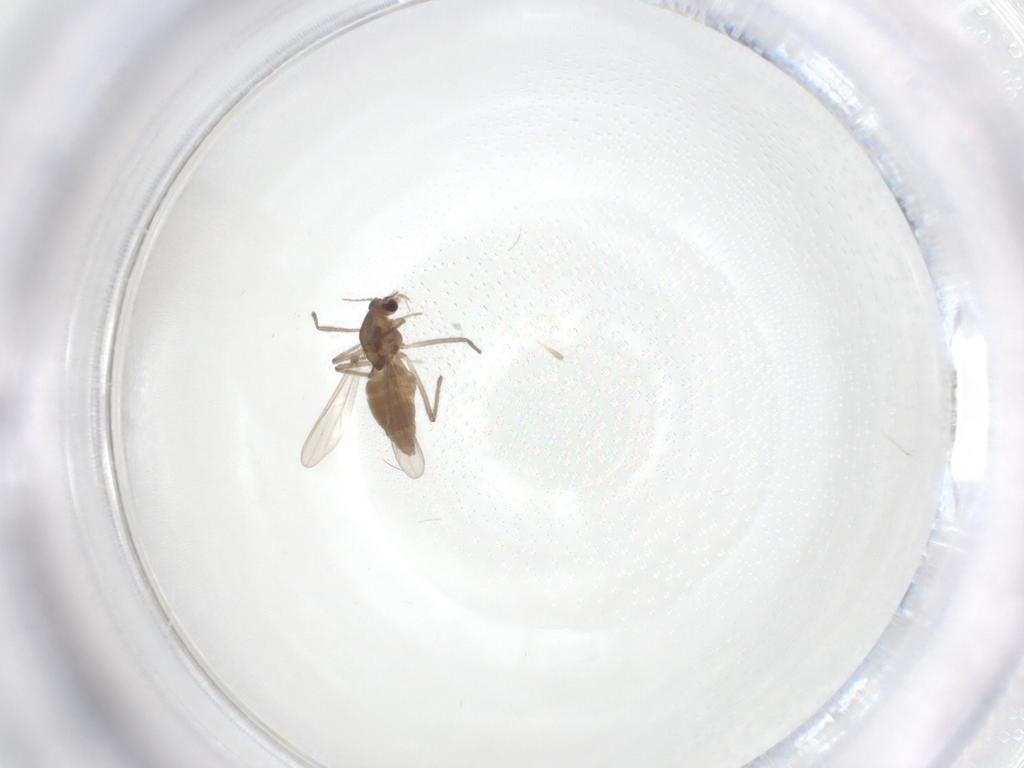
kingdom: Animalia
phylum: Arthropoda
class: Insecta
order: Diptera
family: Chironomidae
